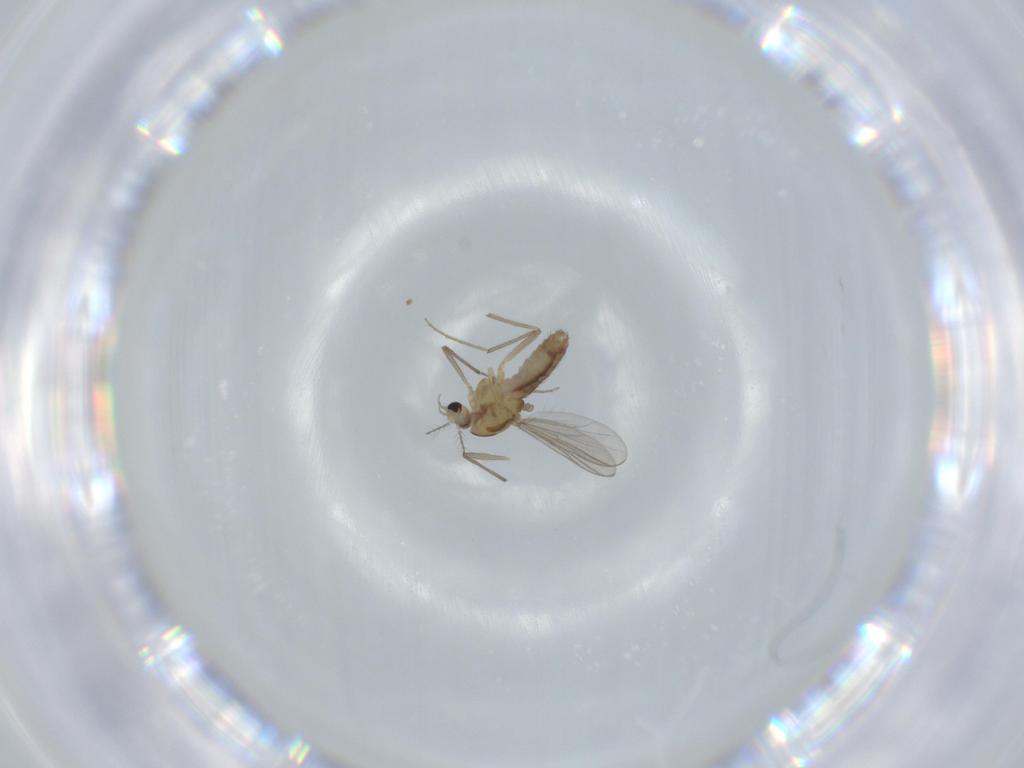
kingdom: Animalia
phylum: Arthropoda
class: Insecta
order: Diptera
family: Chironomidae
